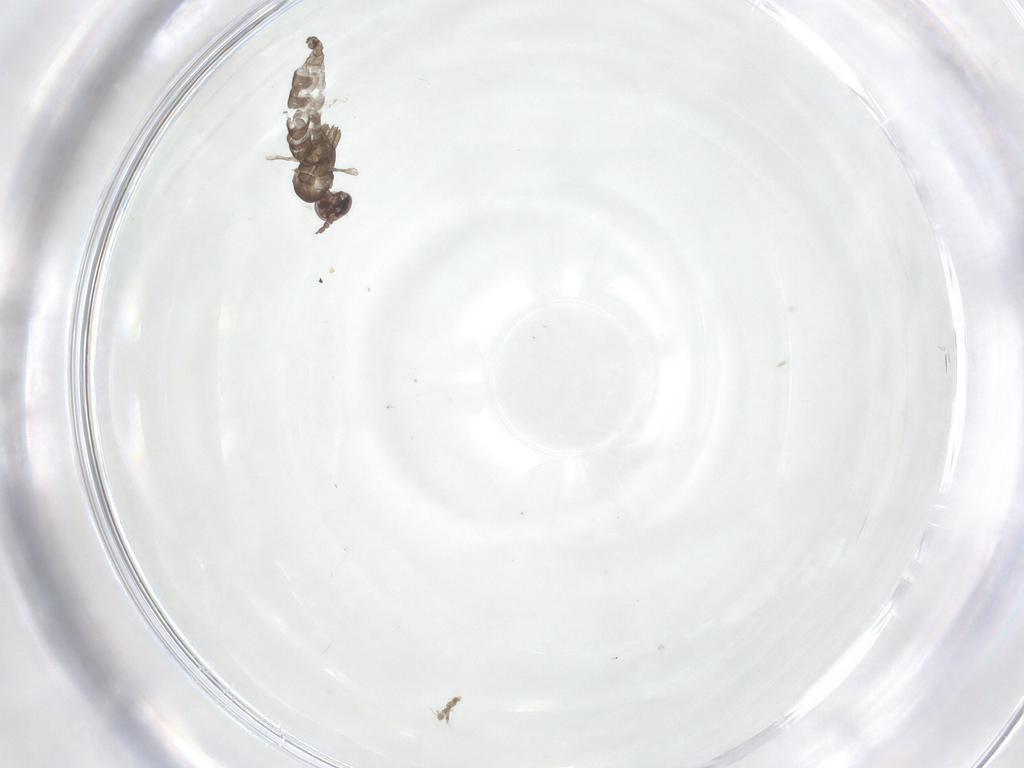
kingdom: Animalia
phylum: Arthropoda
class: Insecta
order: Diptera
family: Cecidomyiidae
